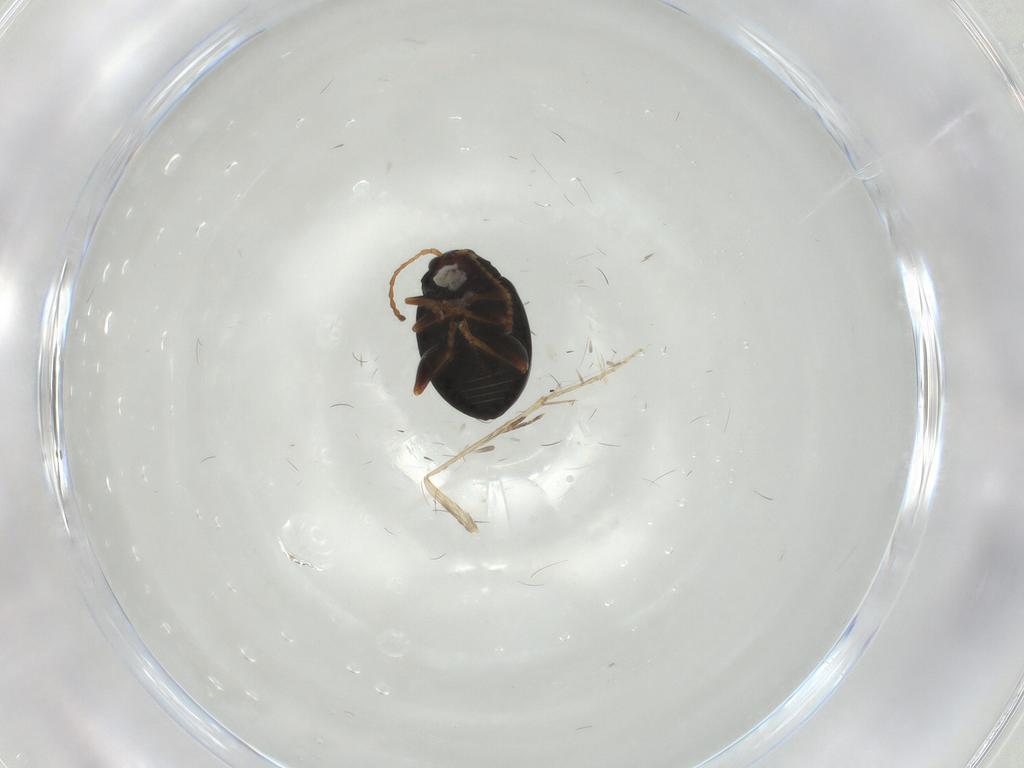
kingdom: Animalia
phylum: Arthropoda
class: Insecta
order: Coleoptera
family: Chrysomelidae
